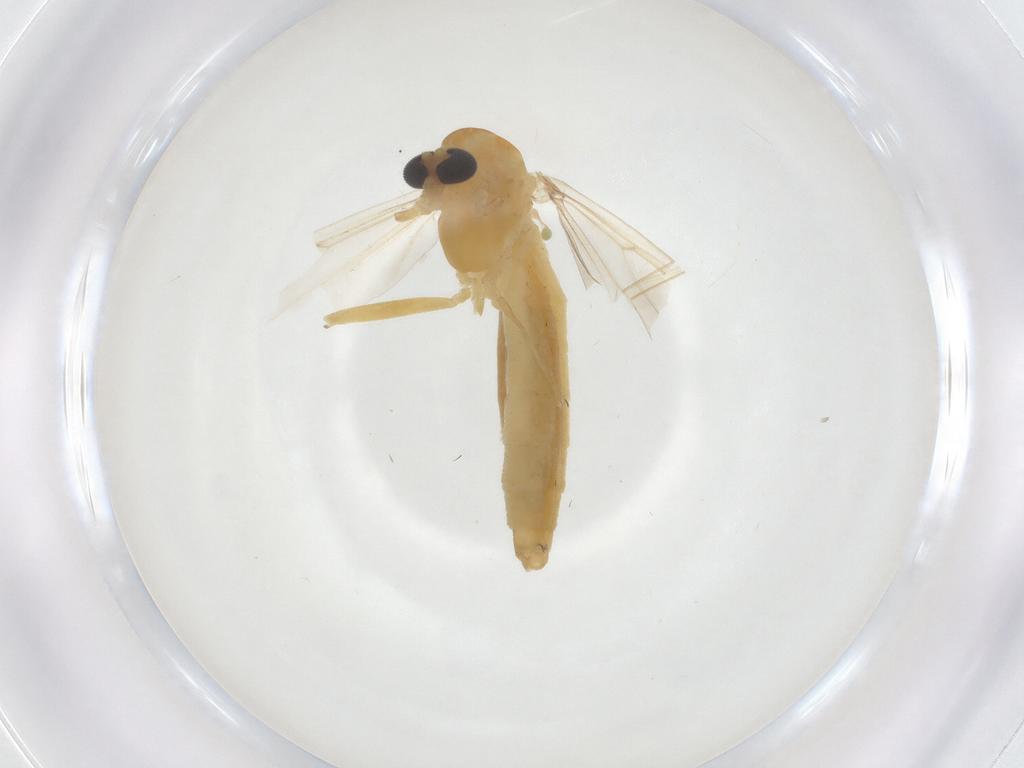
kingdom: Animalia
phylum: Arthropoda
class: Insecta
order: Diptera
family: Chironomidae
